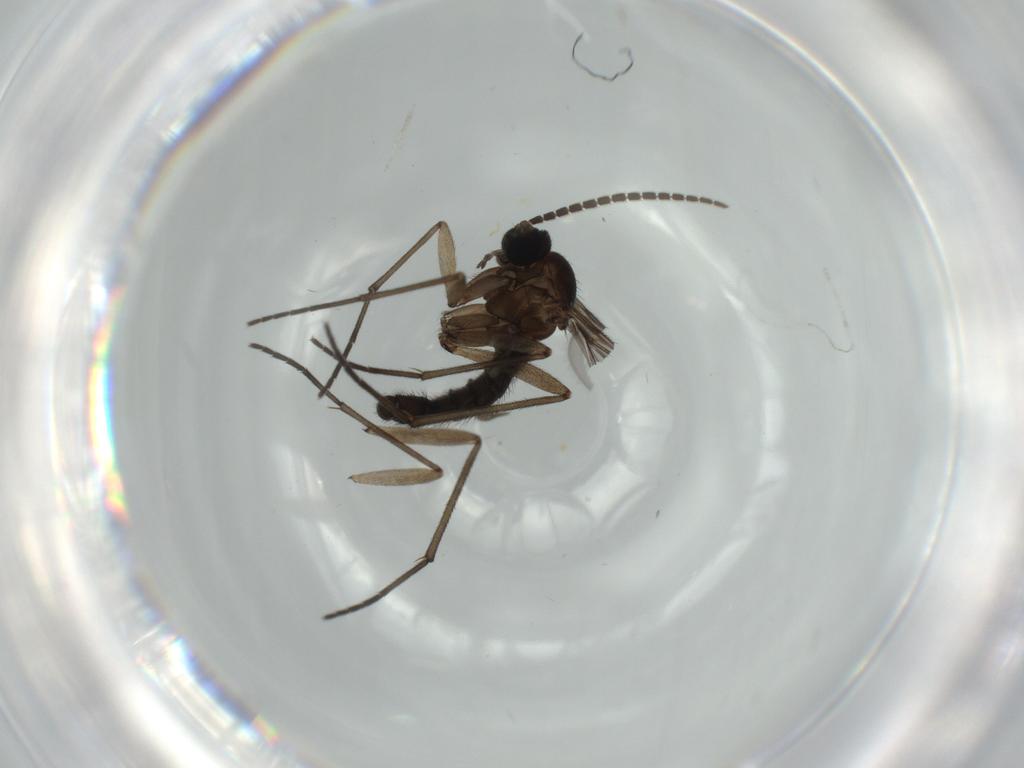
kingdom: Animalia
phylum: Arthropoda
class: Insecta
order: Diptera
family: Sciaridae
